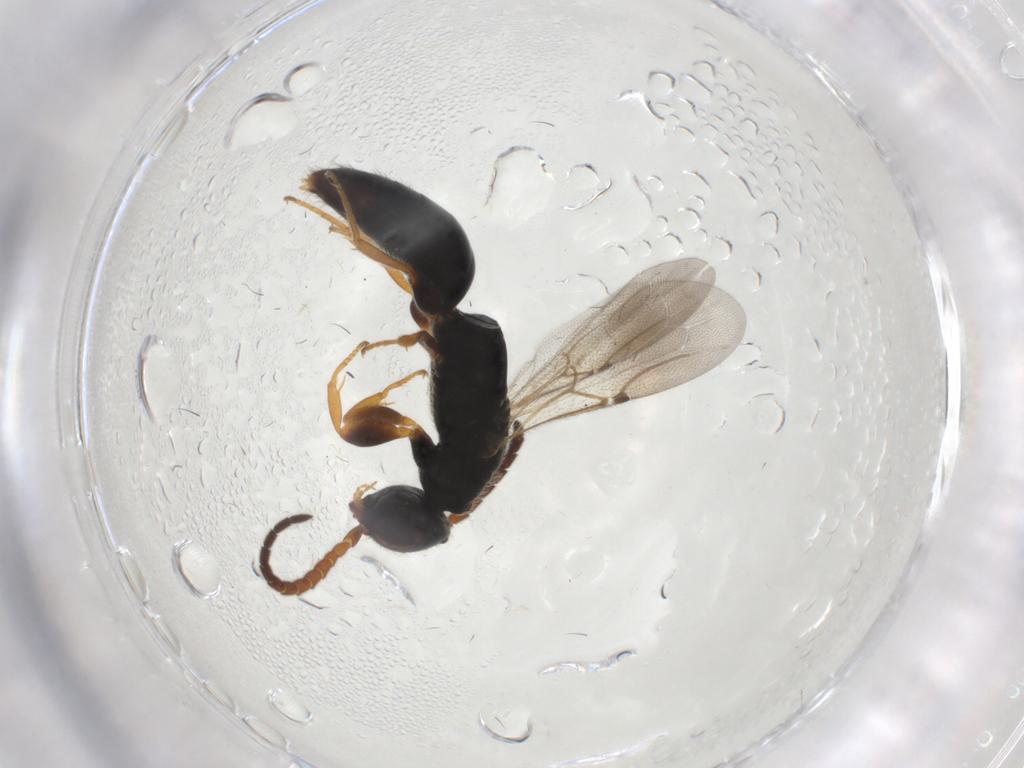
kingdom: Animalia
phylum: Arthropoda
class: Insecta
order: Hymenoptera
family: Bethylidae
